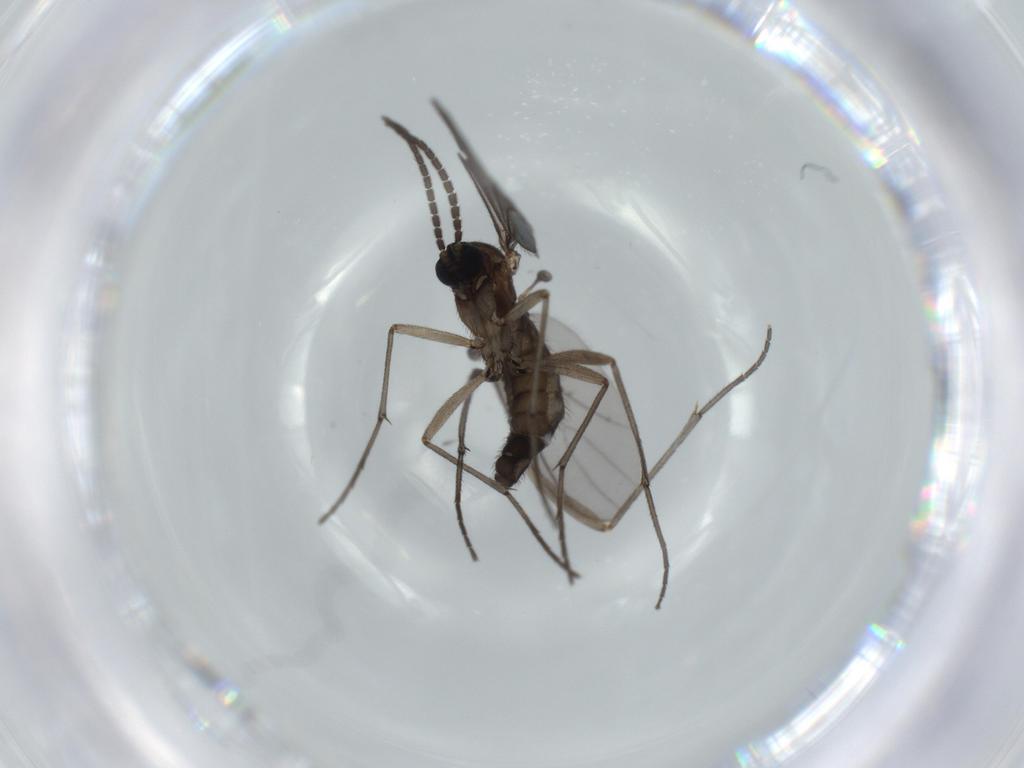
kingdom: Animalia
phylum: Arthropoda
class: Insecta
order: Diptera
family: Sciaridae
